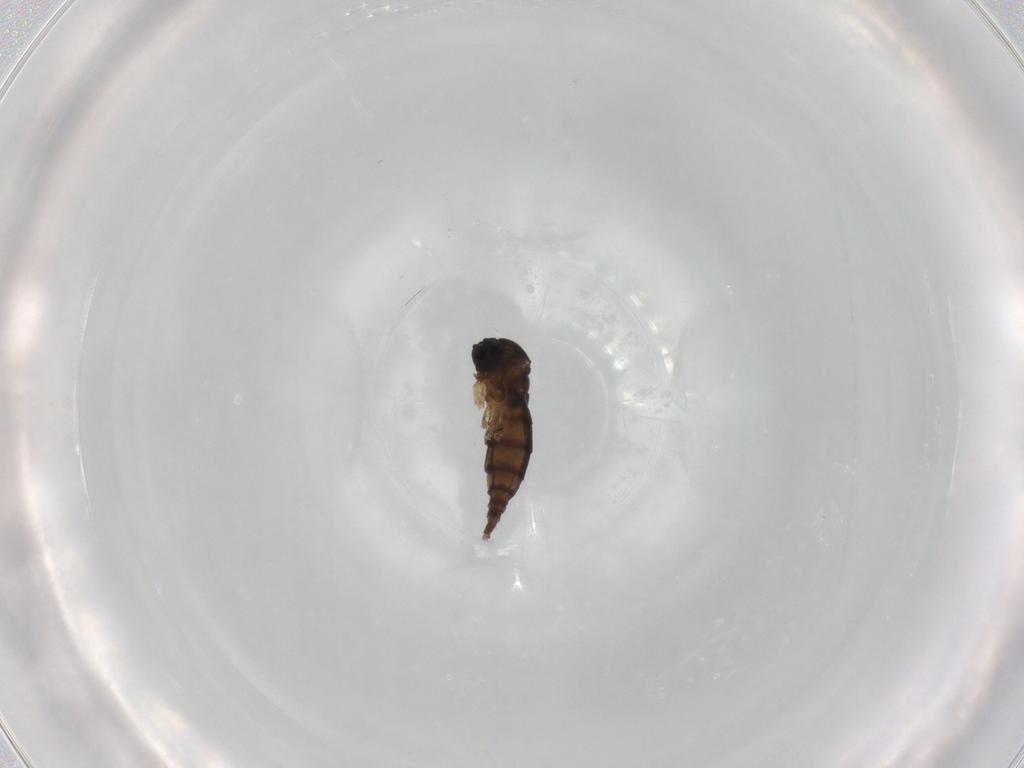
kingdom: Animalia
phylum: Arthropoda
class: Insecta
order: Diptera
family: Sciaridae
